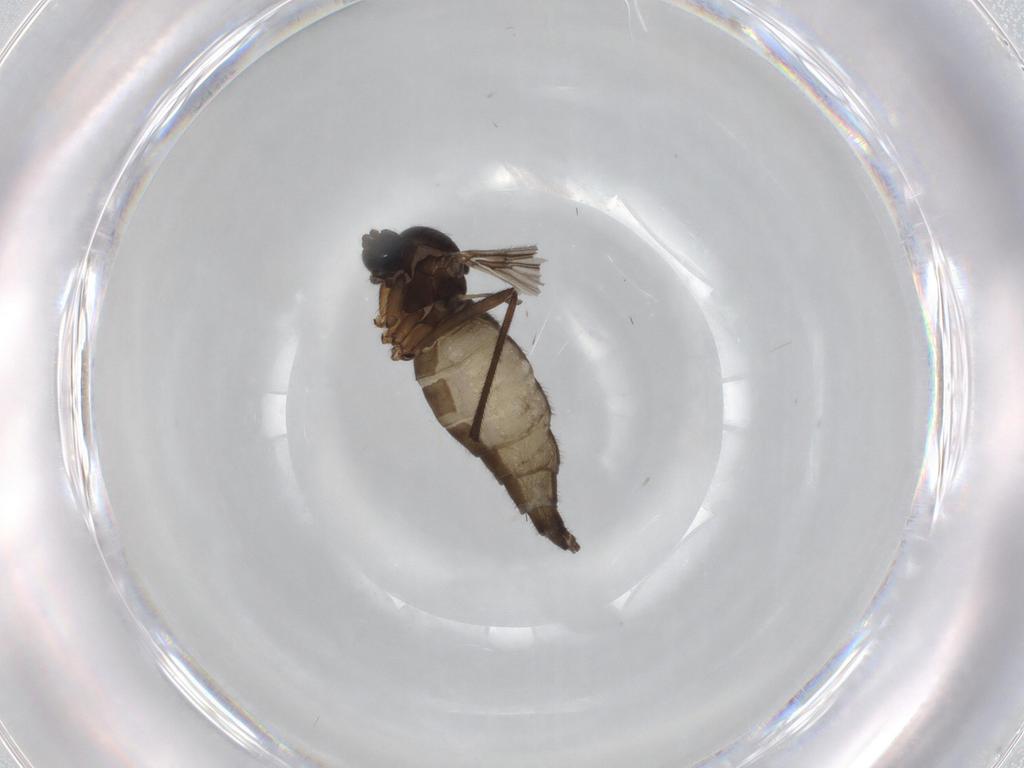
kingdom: Animalia
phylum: Arthropoda
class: Insecta
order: Diptera
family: Sciaridae
